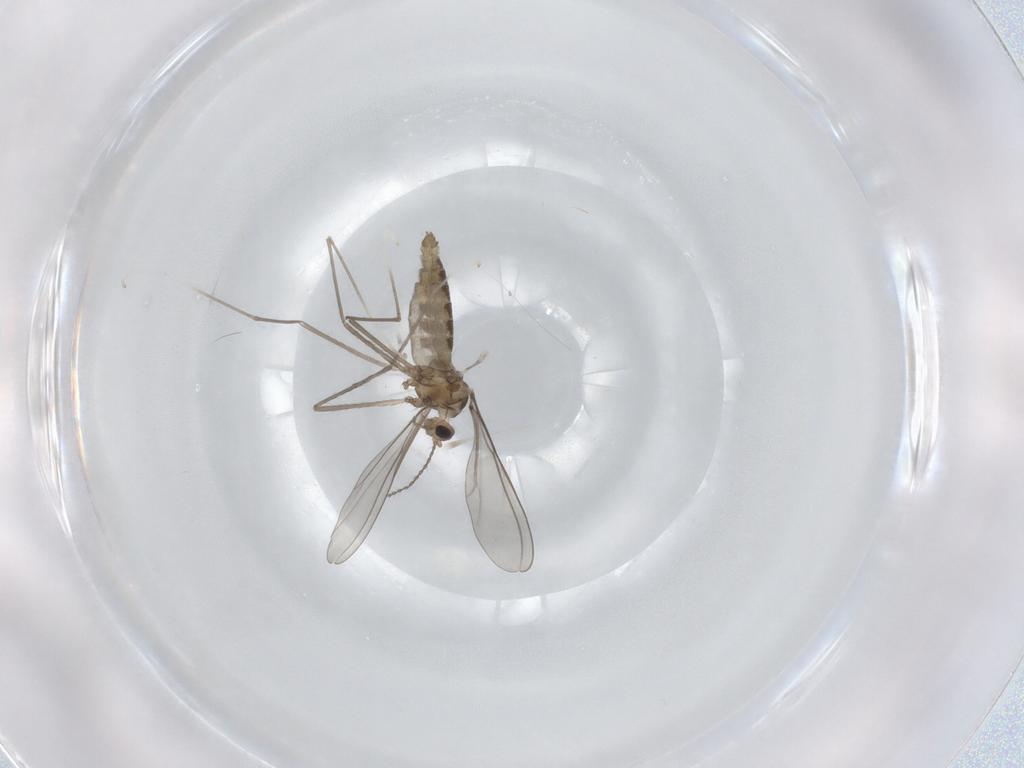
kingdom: Animalia
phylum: Arthropoda
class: Insecta
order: Diptera
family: Cecidomyiidae
